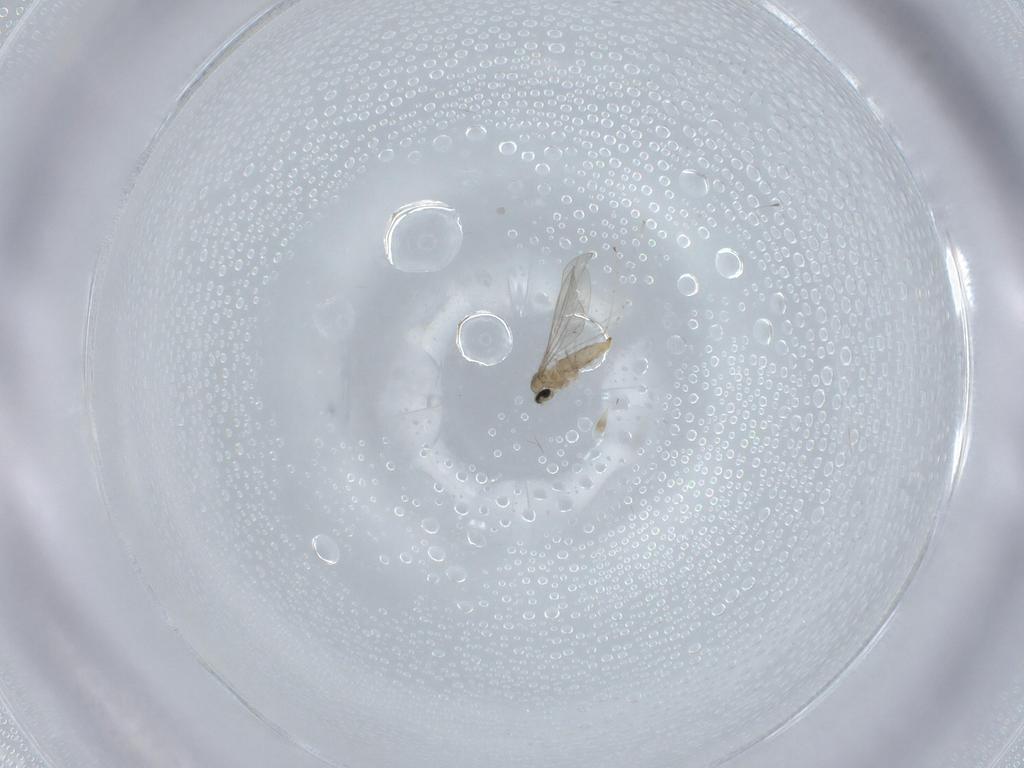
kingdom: Animalia
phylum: Arthropoda
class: Insecta
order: Diptera
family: Cecidomyiidae
